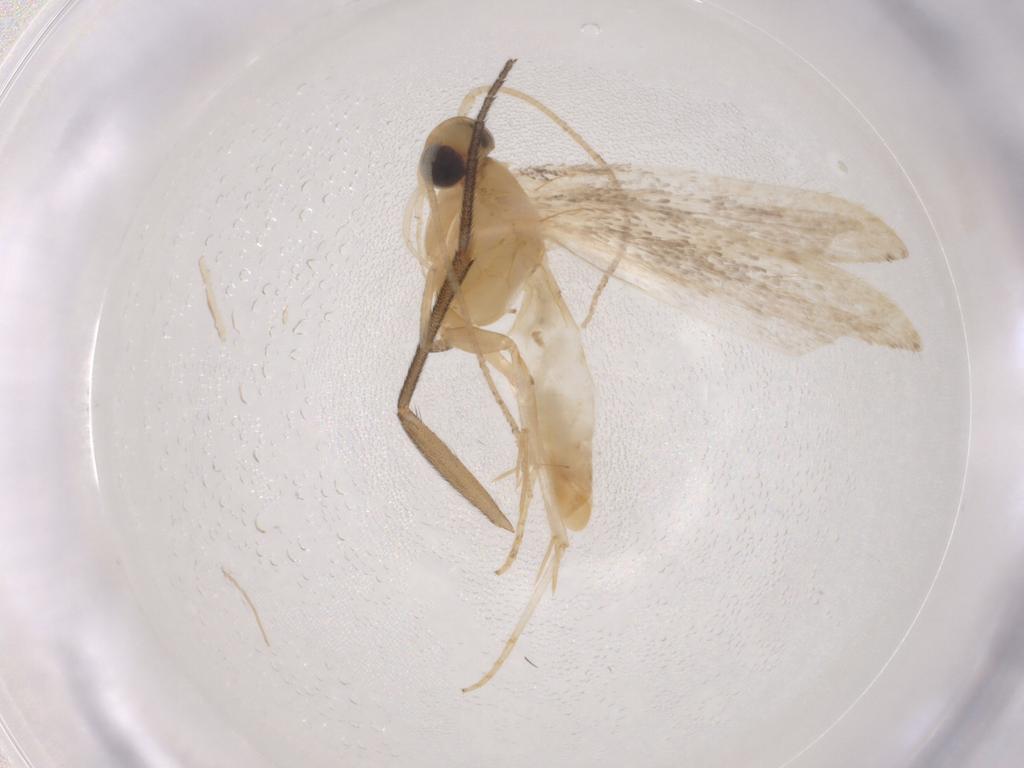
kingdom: Animalia
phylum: Arthropoda
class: Insecta
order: Lepidoptera
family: Autostichidae
